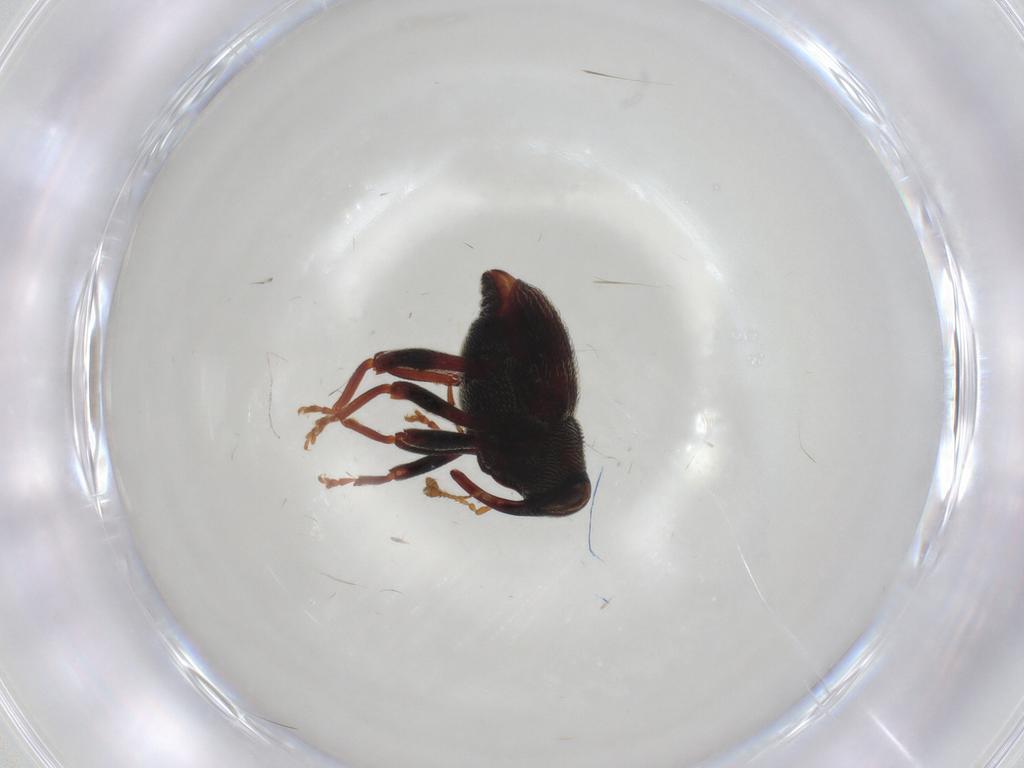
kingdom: Animalia
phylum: Arthropoda
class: Insecta
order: Coleoptera
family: Curculionidae
